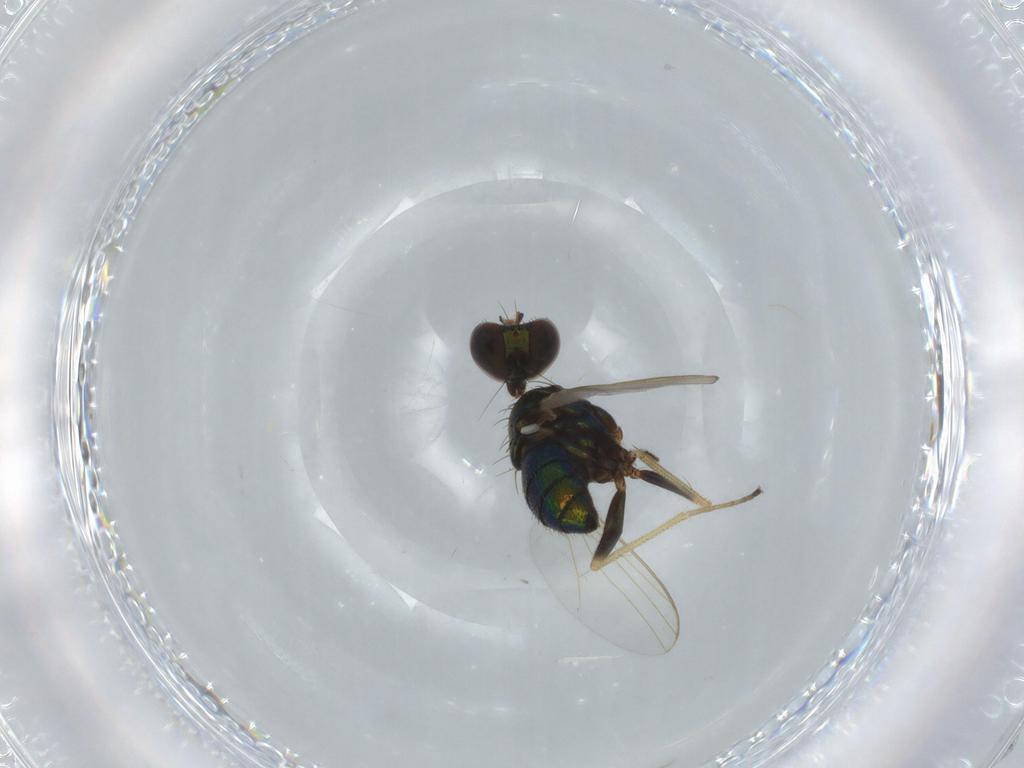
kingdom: Animalia
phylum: Arthropoda
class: Insecta
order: Diptera
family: Dolichopodidae
